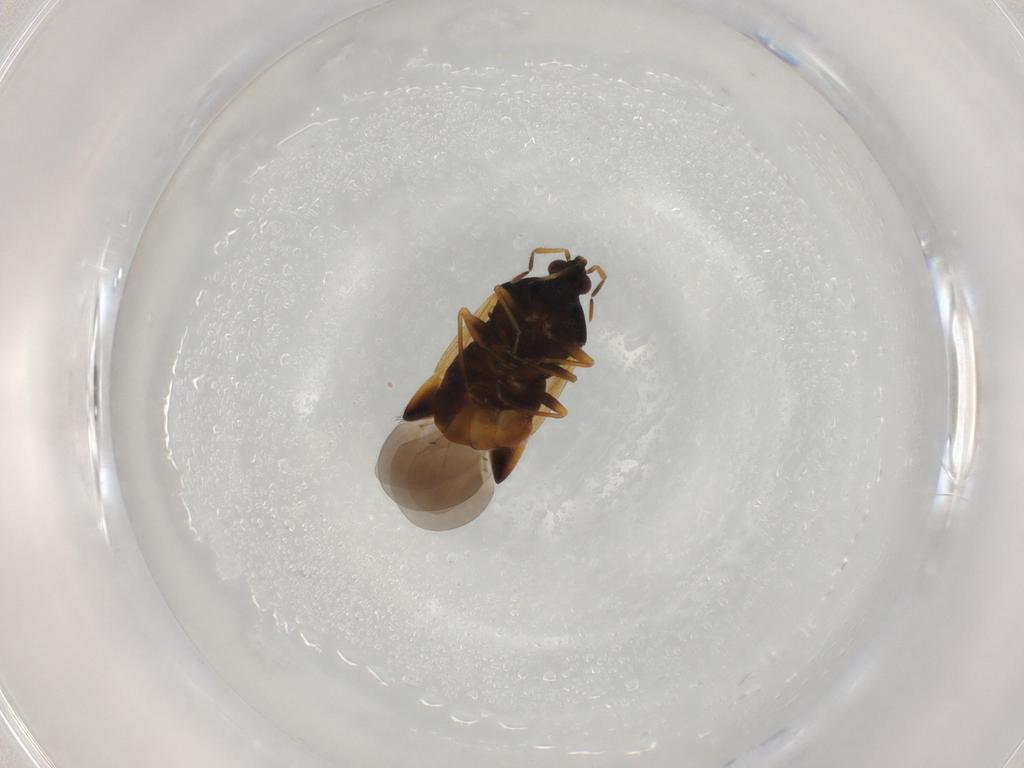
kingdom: Animalia
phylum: Arthropoda
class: Insecta
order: Hemiptera
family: Anthocoridae
